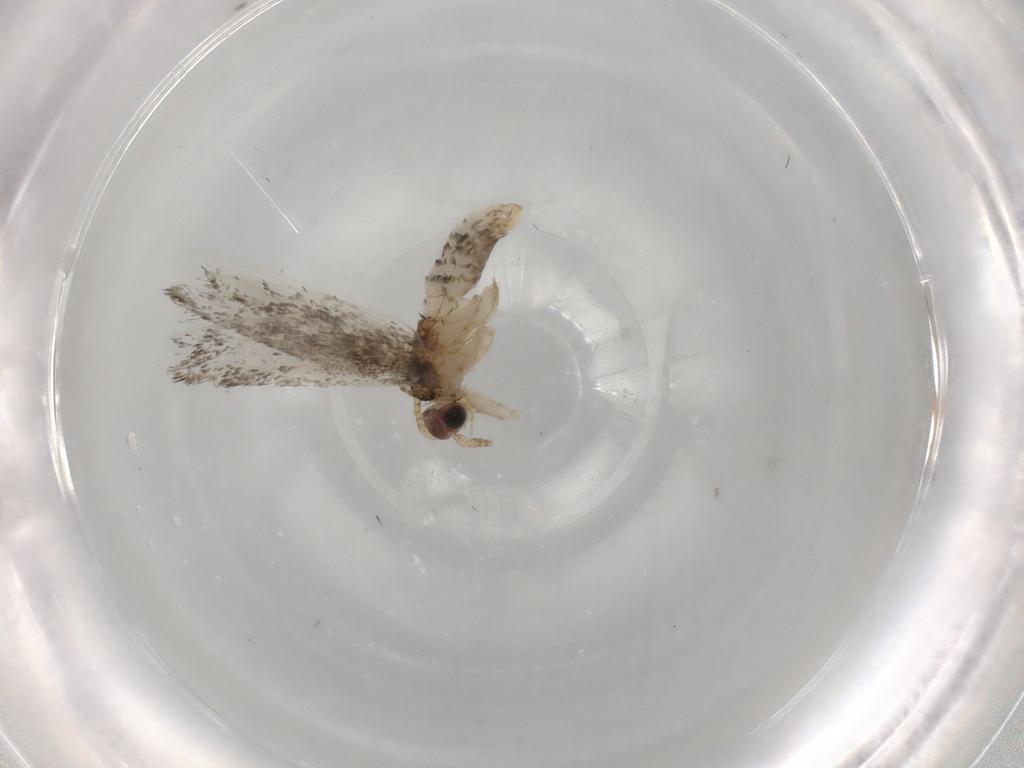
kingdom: Animalia
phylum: Arthropoda
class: Insecta
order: Lepidoptera
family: Tineidae
